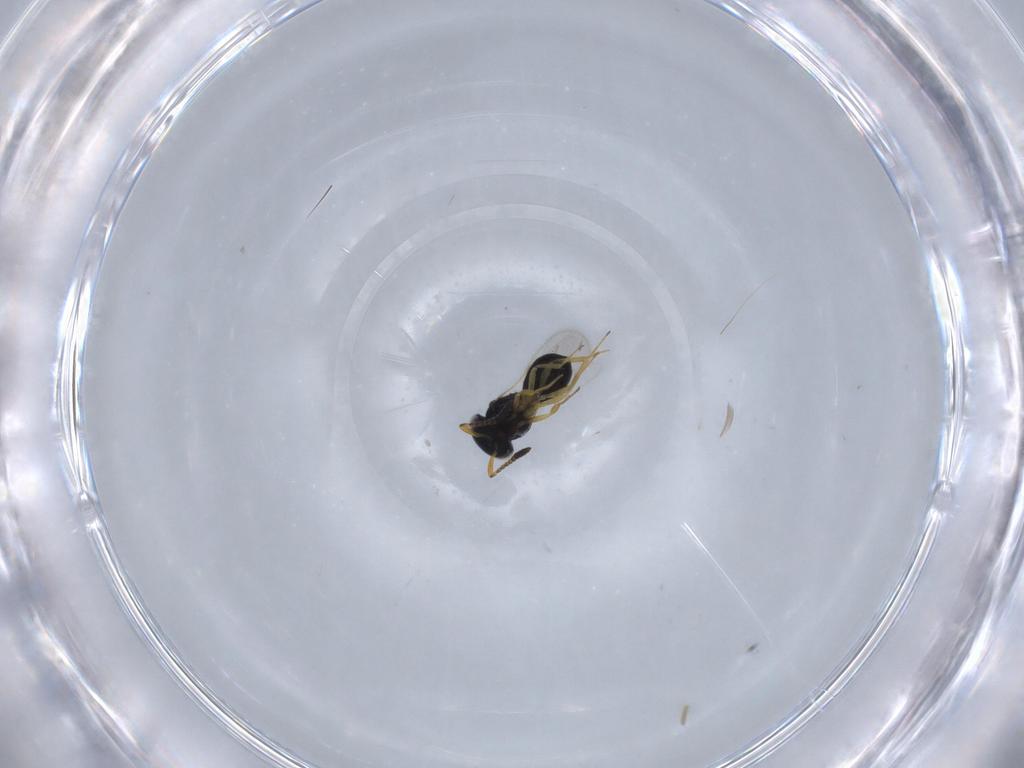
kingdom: Animalia
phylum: Arthropoda
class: Insecta
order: Hymenoptera
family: Scelionidae
